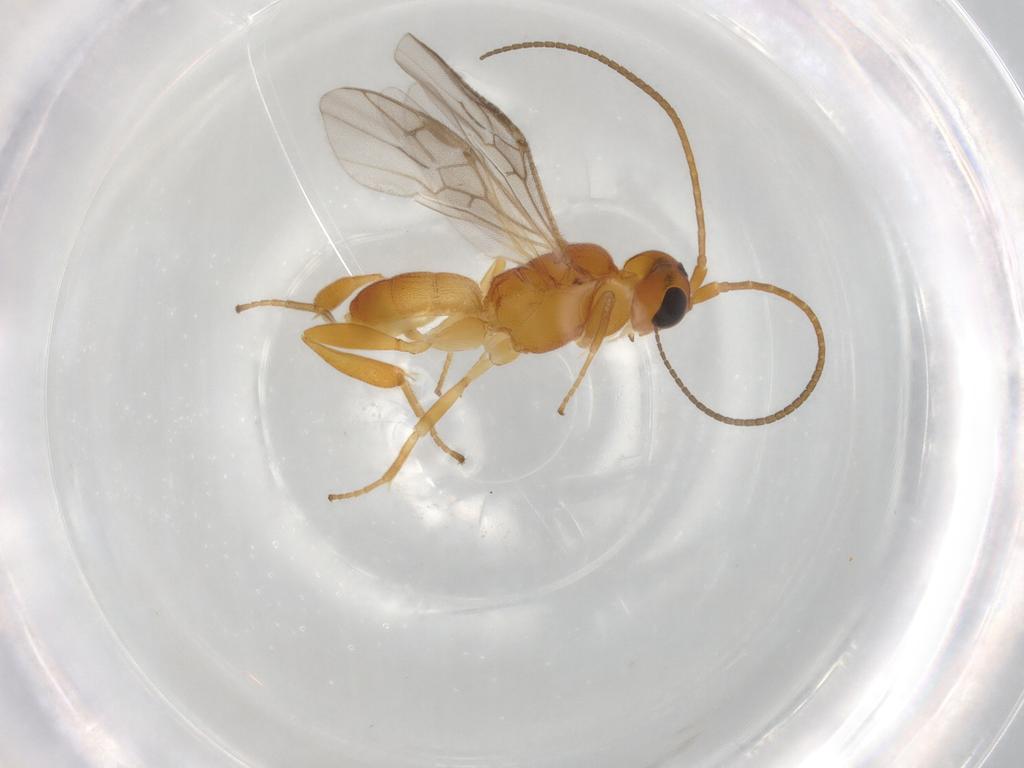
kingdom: Animalia
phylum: Arthropoda
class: Insecta
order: Hymenoptera
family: Braconidae
